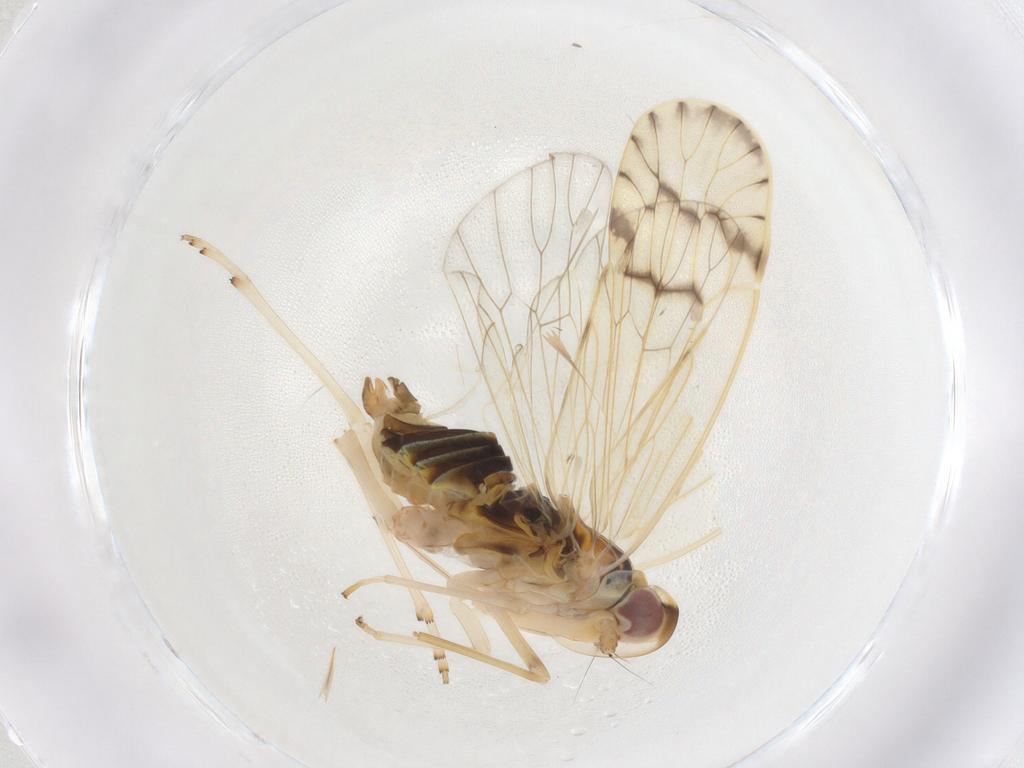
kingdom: Animalia
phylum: Arthropoda
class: Insecta
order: Hemiptera
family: Kinnaridae
